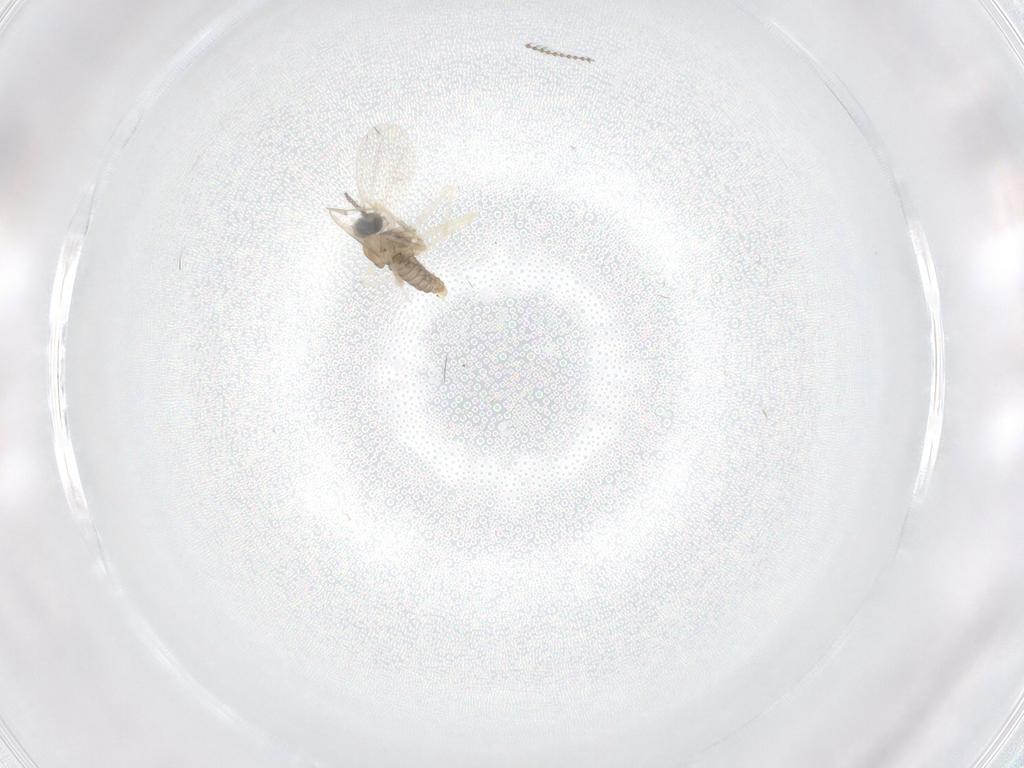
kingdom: Animalia
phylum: Arthropoda
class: Insecta
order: Diptera
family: Cecidomyiidae
